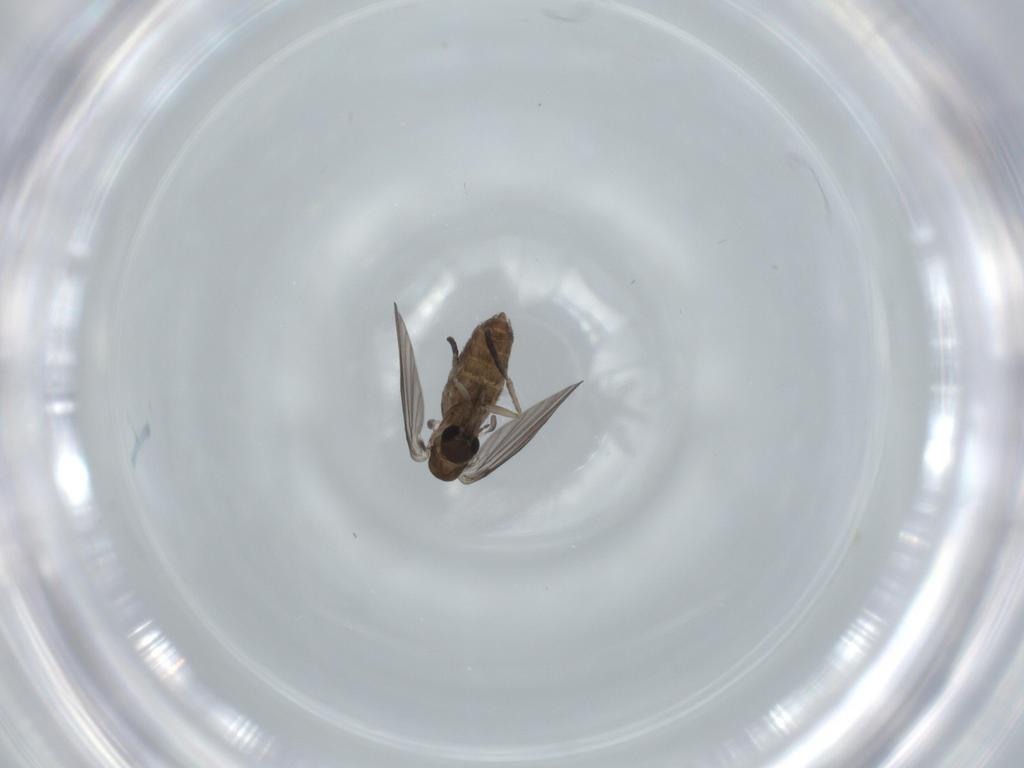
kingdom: Animalia
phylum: Arthropoda
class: Insecta
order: Diptera
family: Psychodidae
